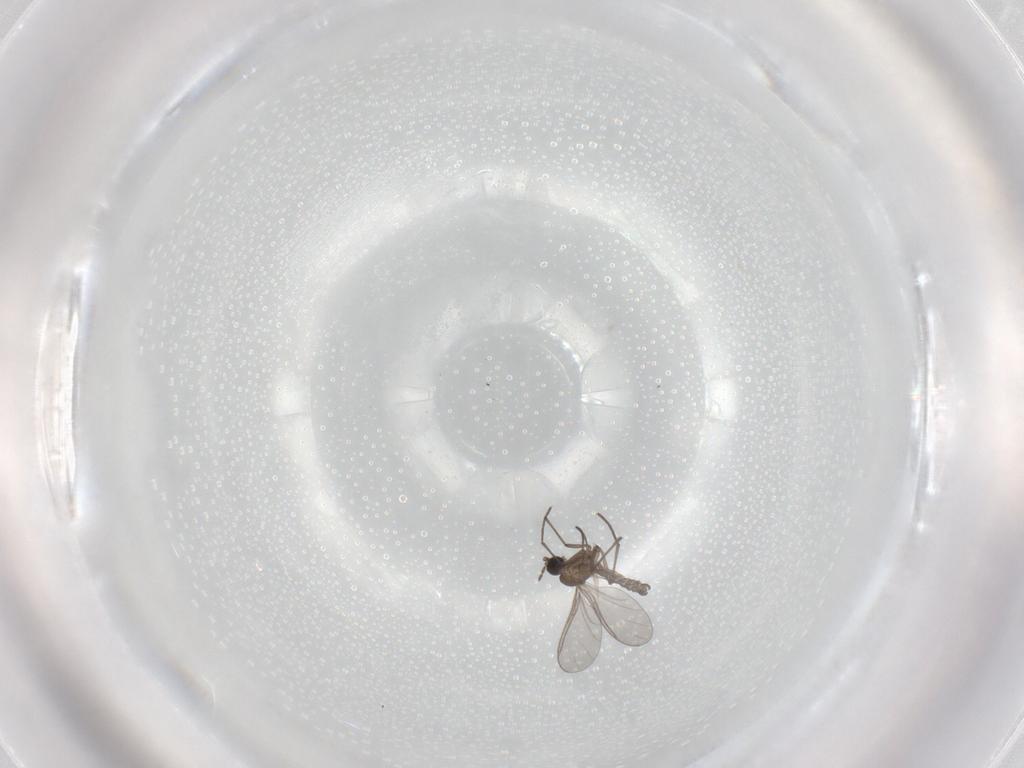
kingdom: Animalia
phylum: Arthropoda
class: Insecta
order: Diptera
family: Sciaridae
